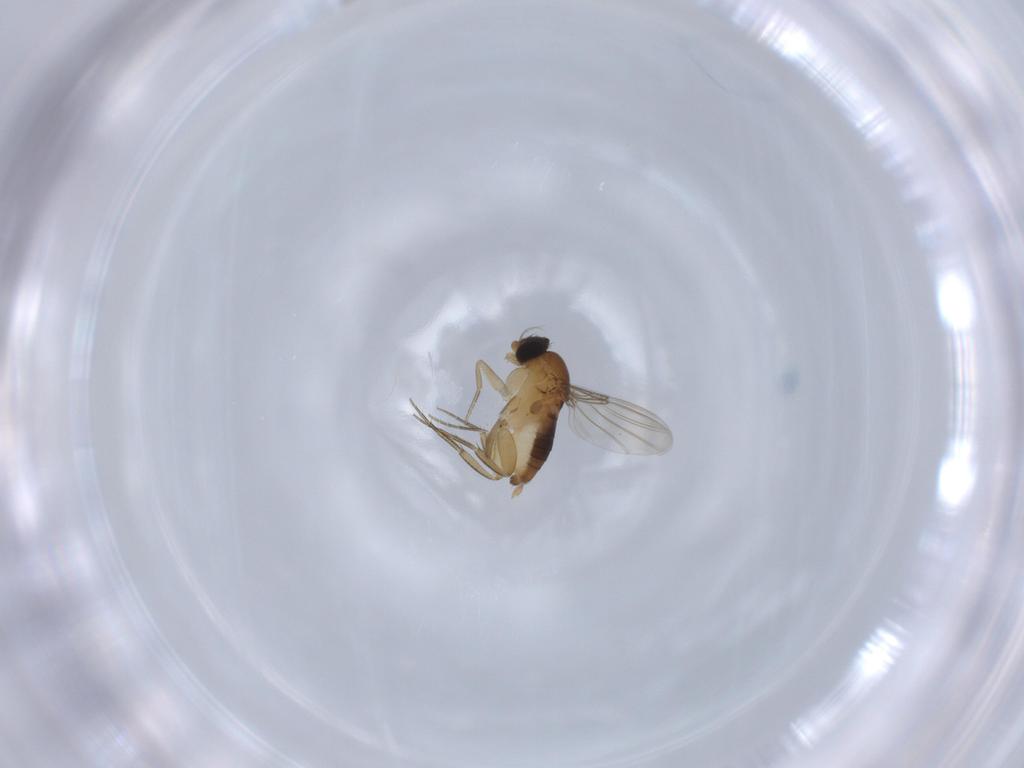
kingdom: Animalia
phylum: Arthropoda
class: Insecta
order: Diptera
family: Phoridae
